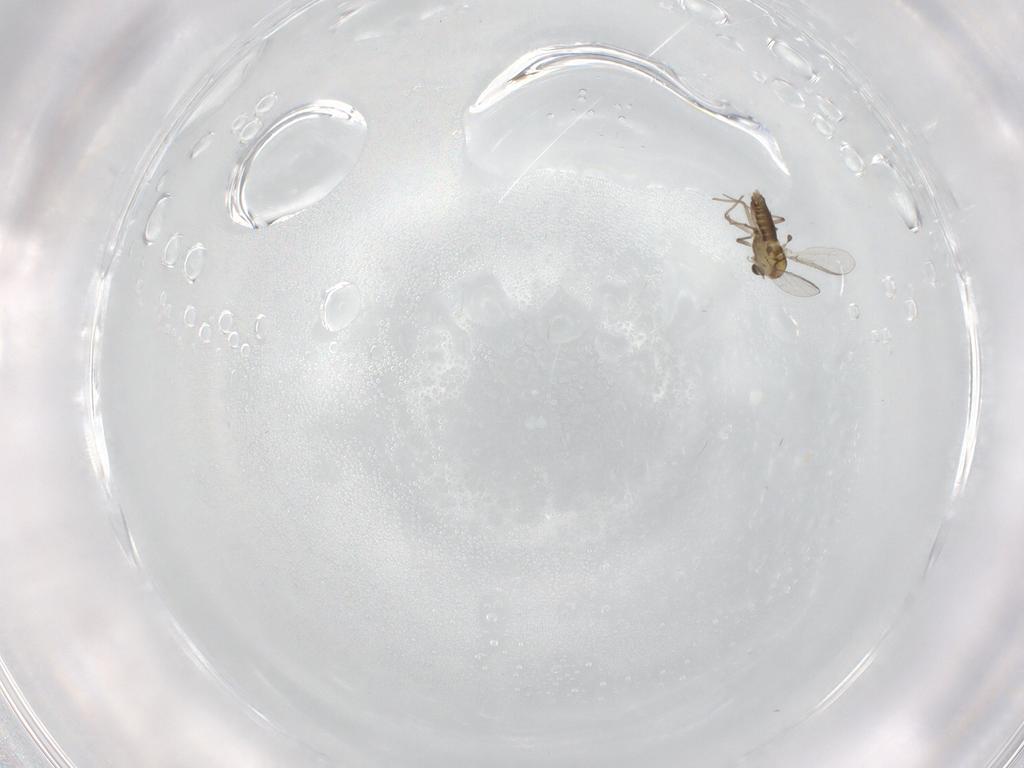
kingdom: Animalia
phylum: Arthropoda
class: Insecta
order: Diptera
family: Chironomidae
